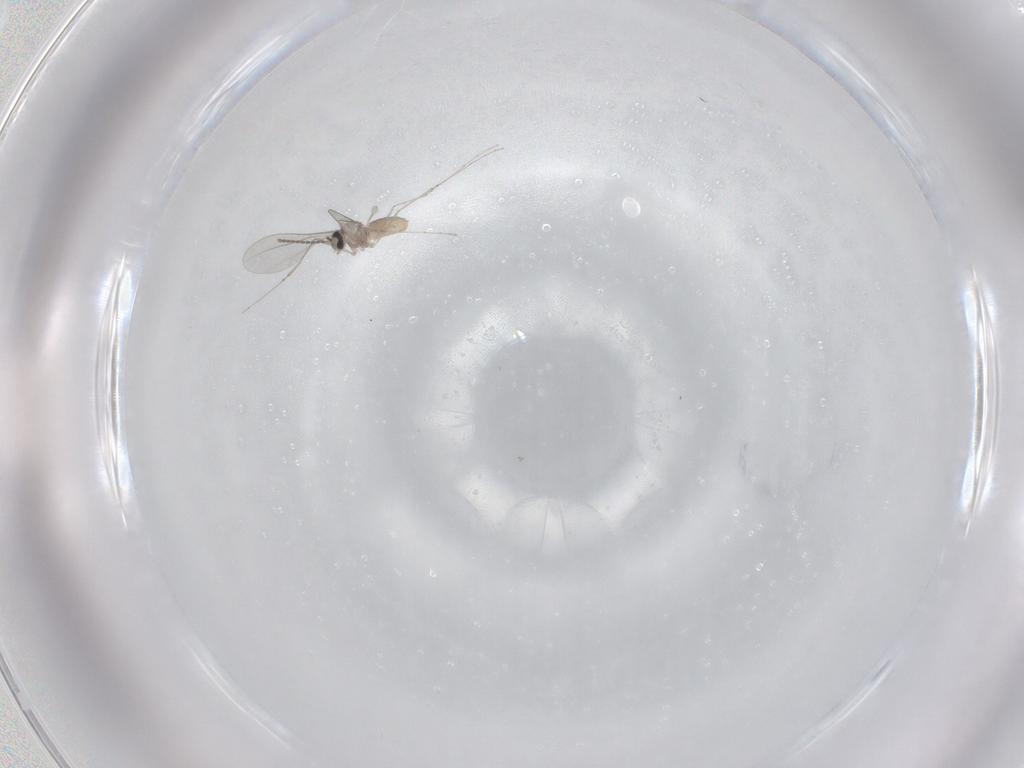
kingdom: Animalia
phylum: Arthropoda
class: Insecta
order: Diptera
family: Cecidomyiidae
